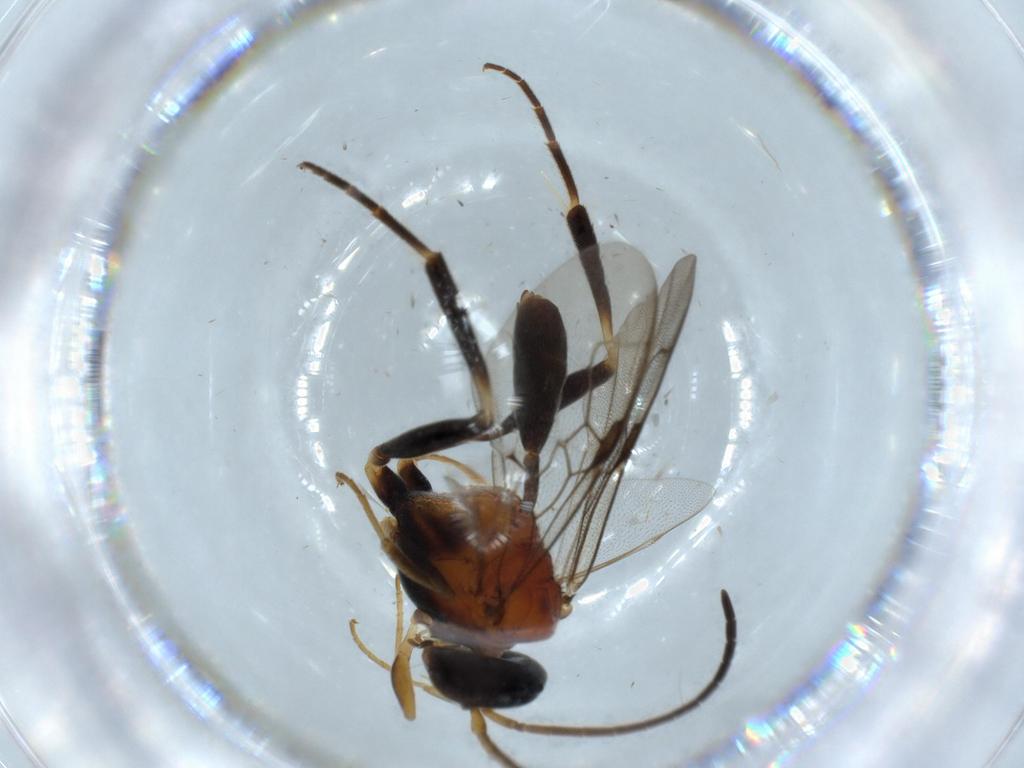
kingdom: Animalia
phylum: Arthropoda
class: Insecta
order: Hymenoptera
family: Evaniidae
